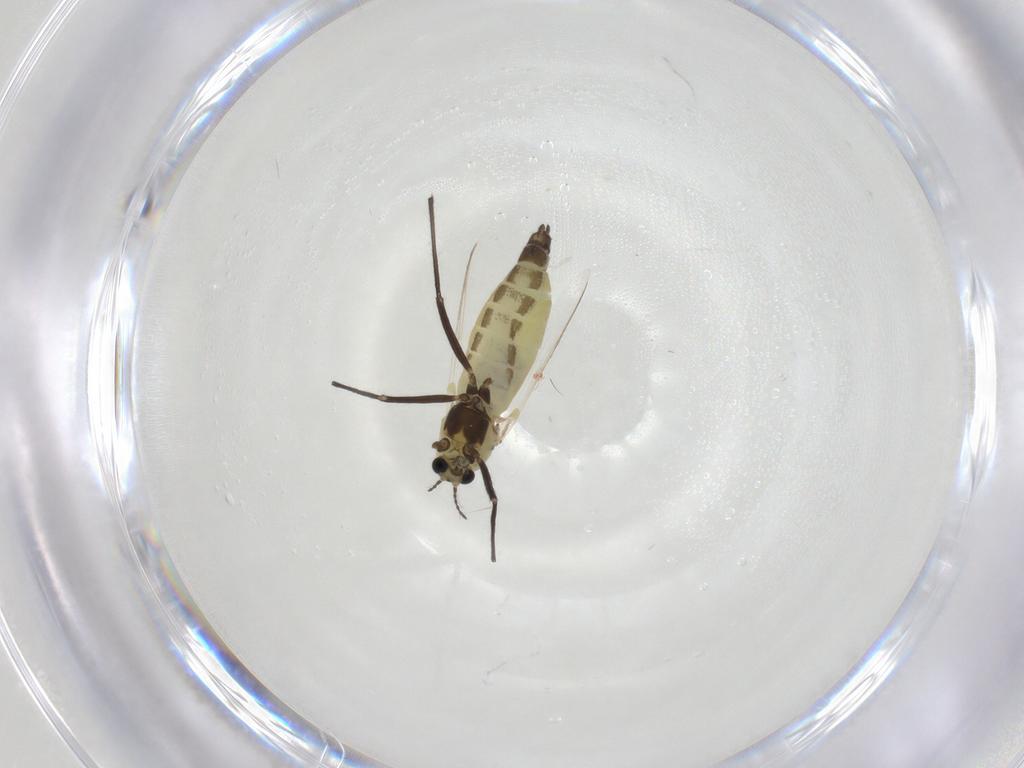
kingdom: Animalia
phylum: Arthropoda
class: Insecta
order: Diptera
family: Chironomidae
